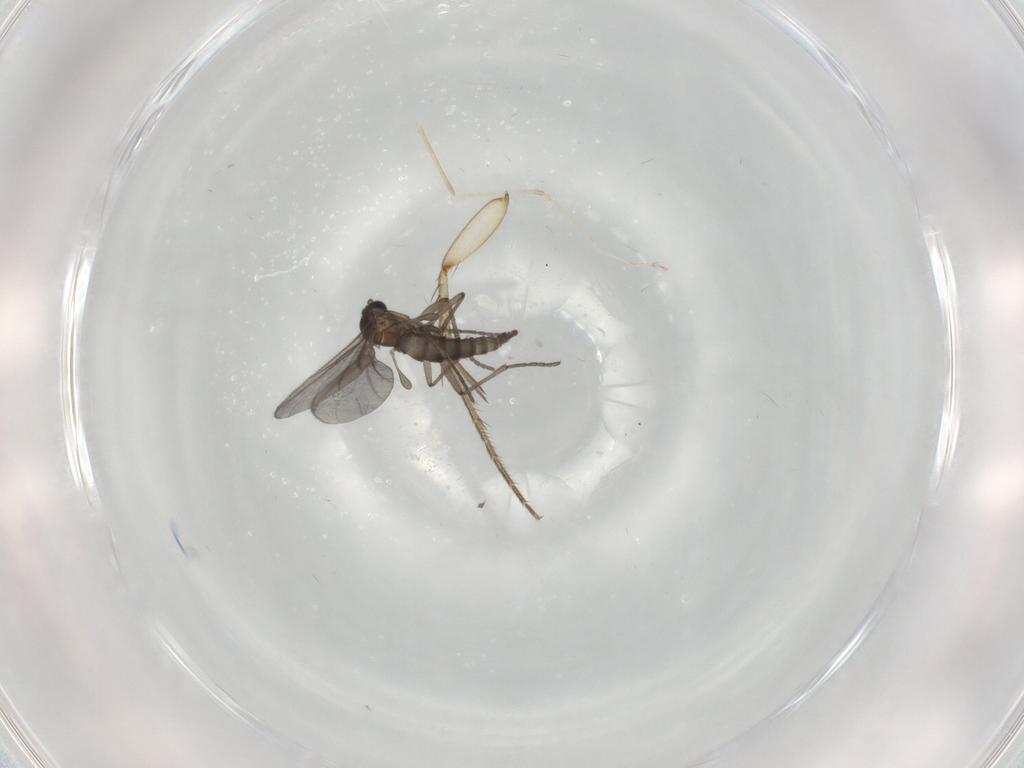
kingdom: Animalia
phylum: Arthropoda
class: Insecta
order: Diptera
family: Sciaridae
